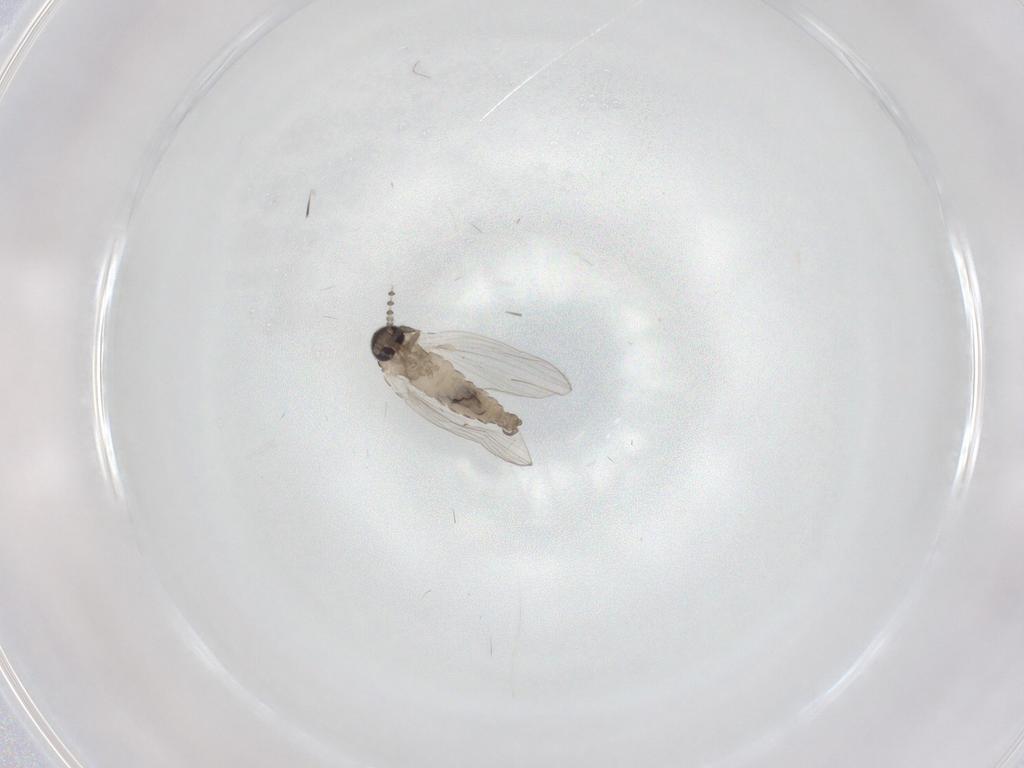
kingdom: Animalia
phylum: Arthropoda
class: Insecta
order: Diptera
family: Psychodidae
